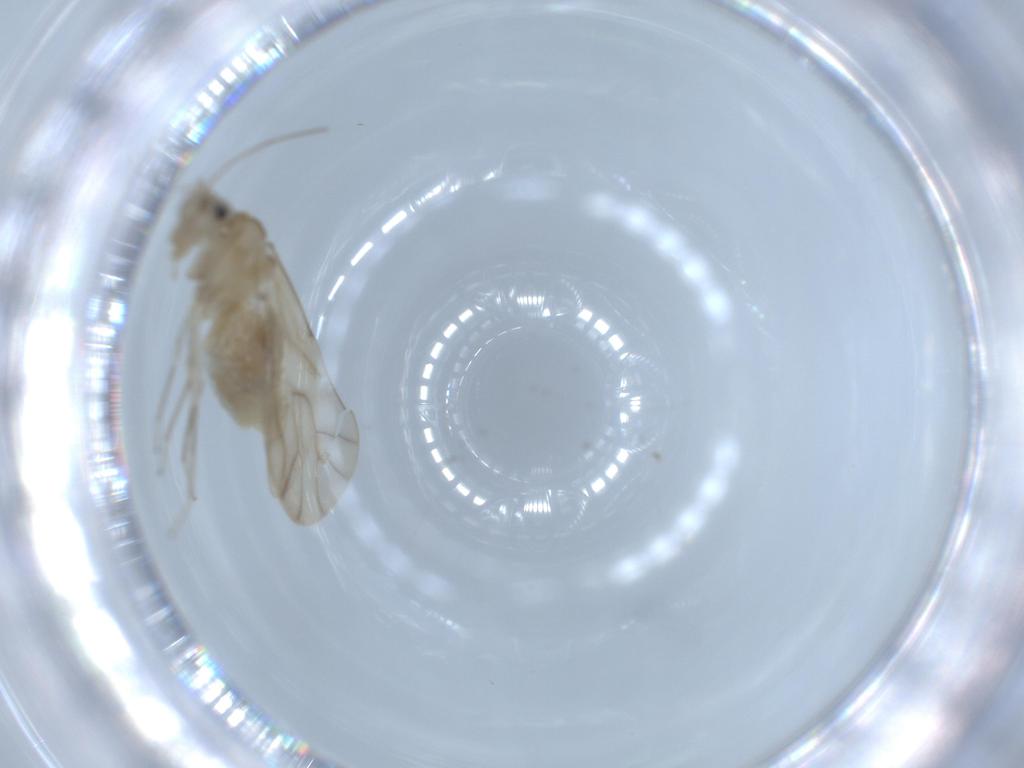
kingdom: Animalia
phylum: Arthropoda
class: Insecta
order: Psocodea
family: Caeciliusidae
